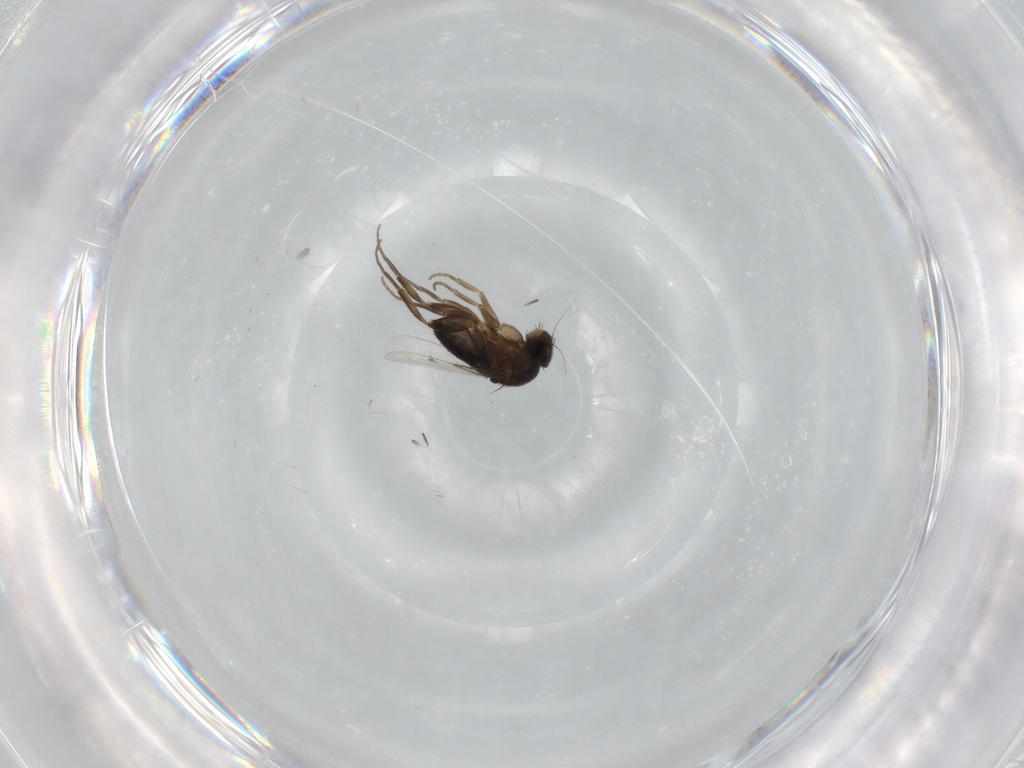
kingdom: Animalia
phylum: Arthropoda
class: Insecta
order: Diptera
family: Phoridae
